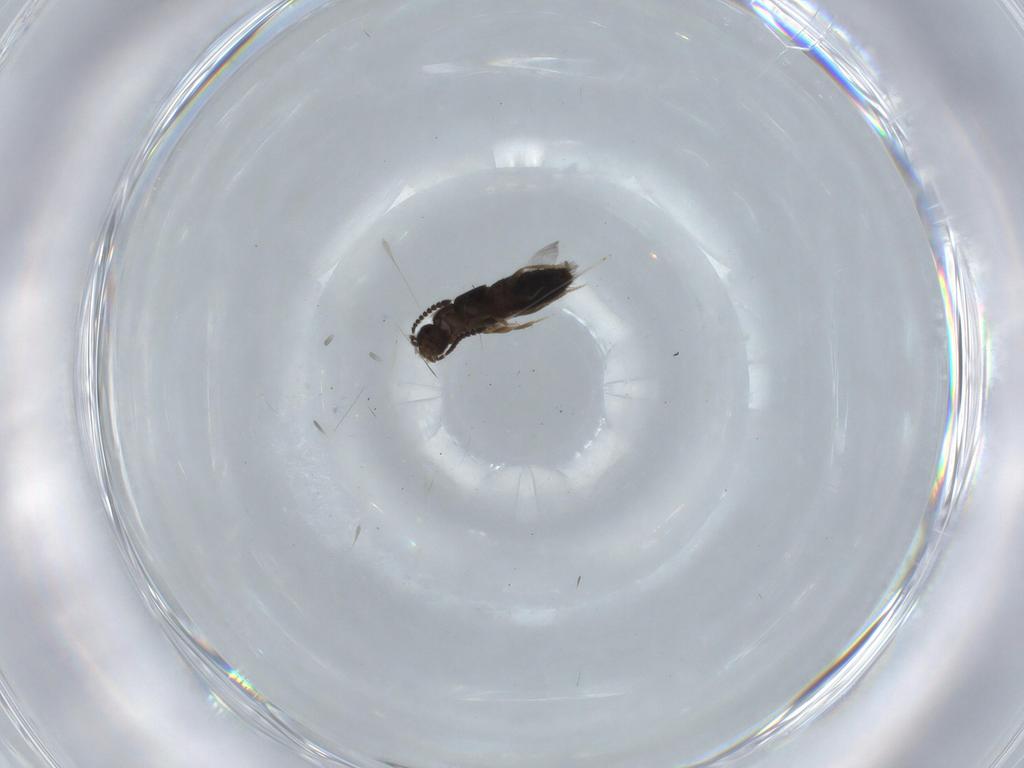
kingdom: Animalia
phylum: Arthropoda
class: Insecta
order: Coleoptera
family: Staphylinidae
